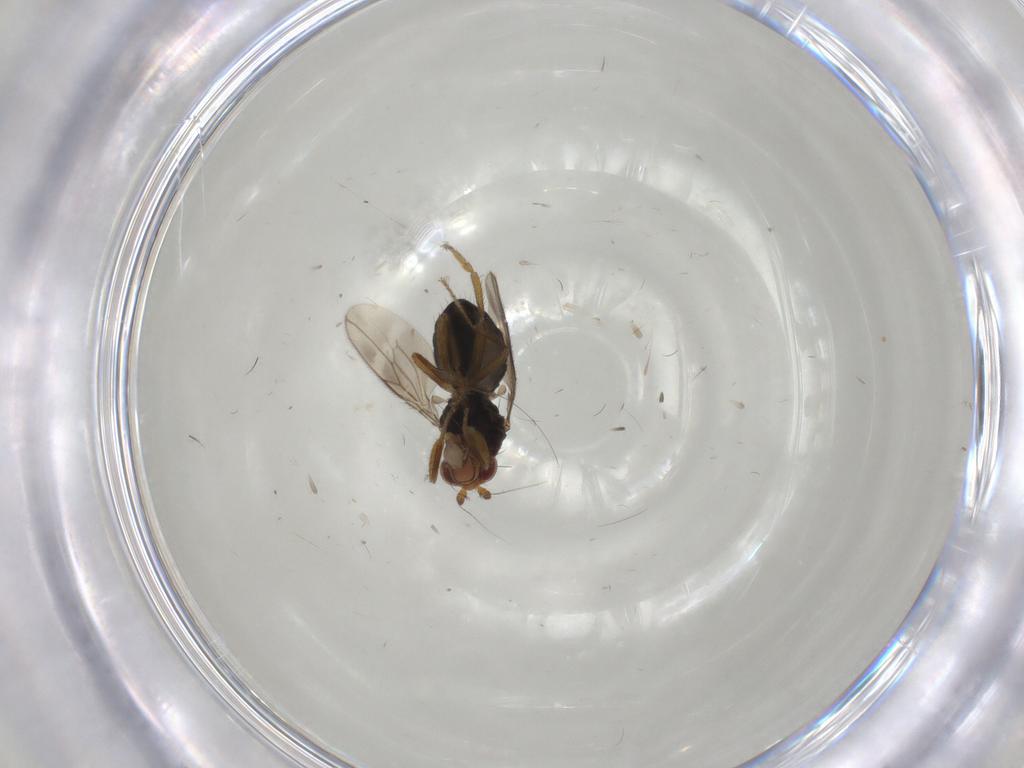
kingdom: Animalia
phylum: Arthropoda
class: Insecta
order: Diptera
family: Sphaeroceridae
